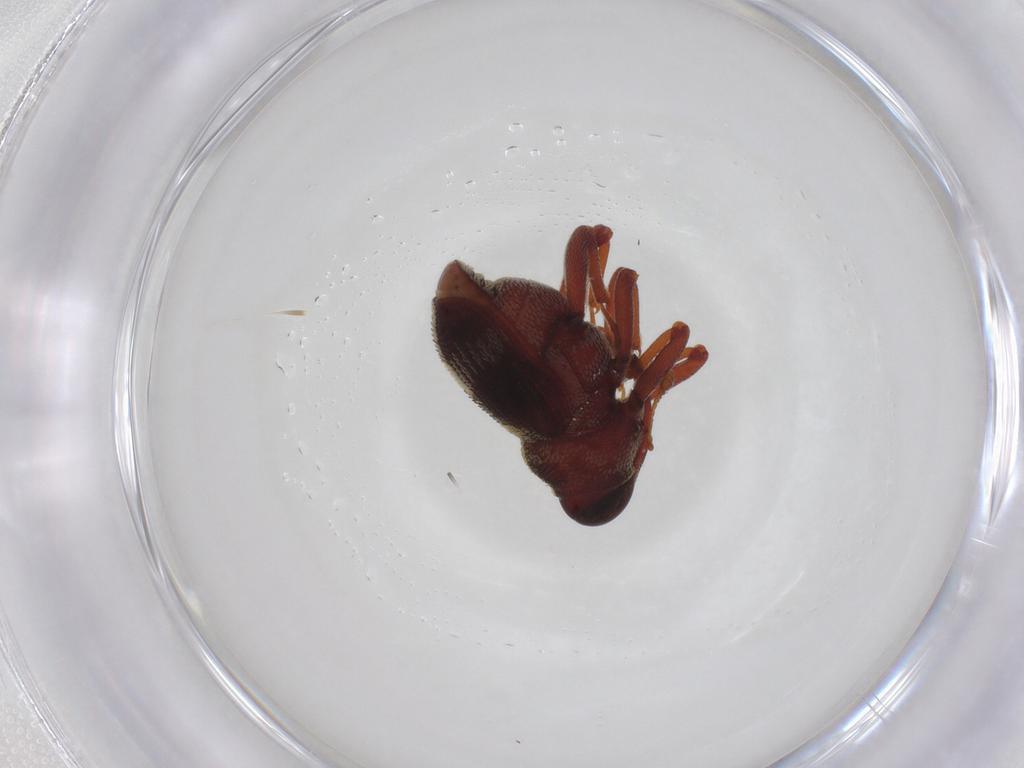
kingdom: Animalia
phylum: Arthropoda
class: Insecta
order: Coleoptera
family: Curculionidae
